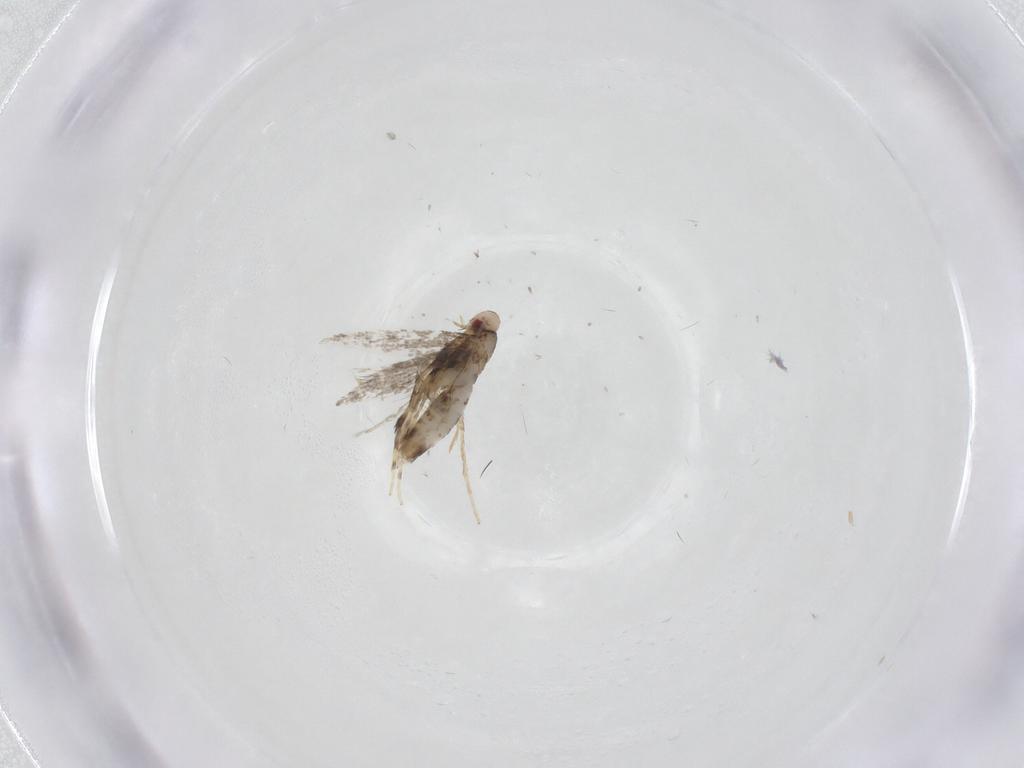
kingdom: Animalia
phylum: Arthropoda
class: Insecta
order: Lepidoptera
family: Gracillariidae
